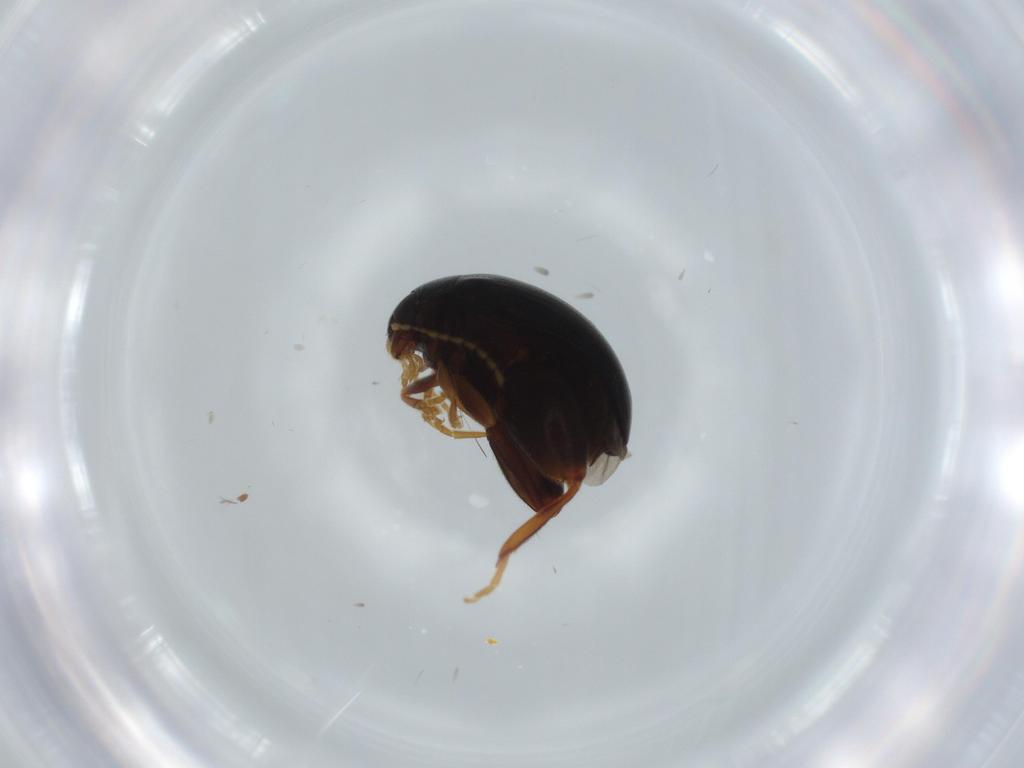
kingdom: Animalia
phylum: Arthropoda
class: Insecta
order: Coleoptera
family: Chrysomelidae
